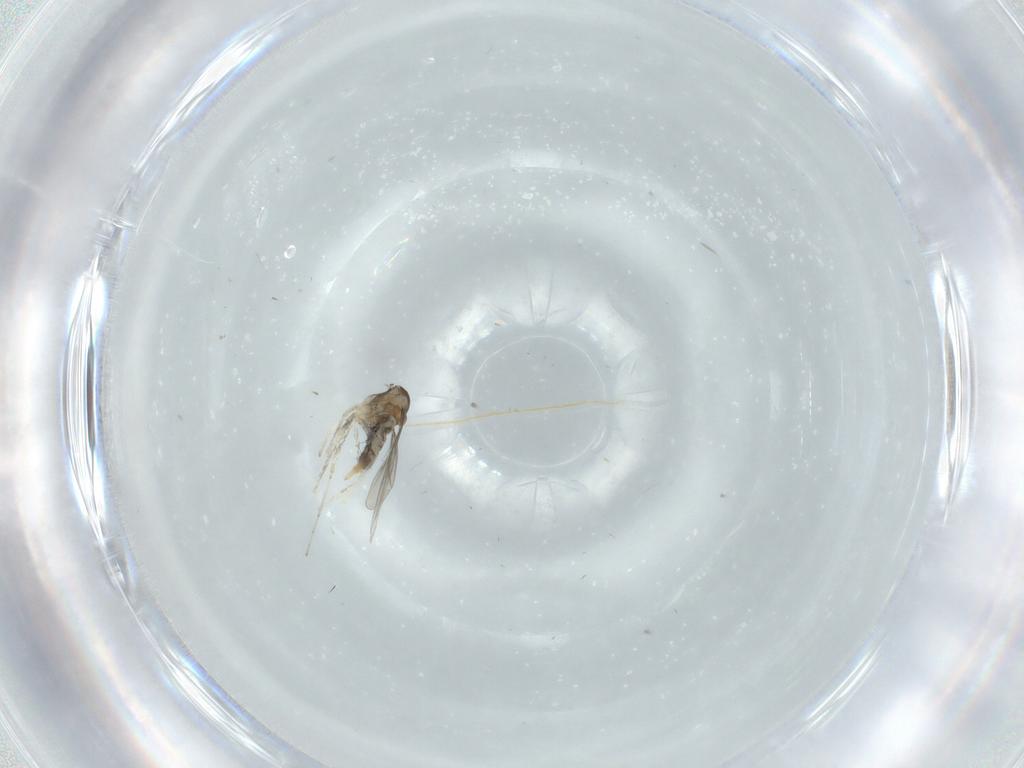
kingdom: Animalia
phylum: Arthropoda
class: Insecta
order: Diptera
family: Cecidomyiidae
